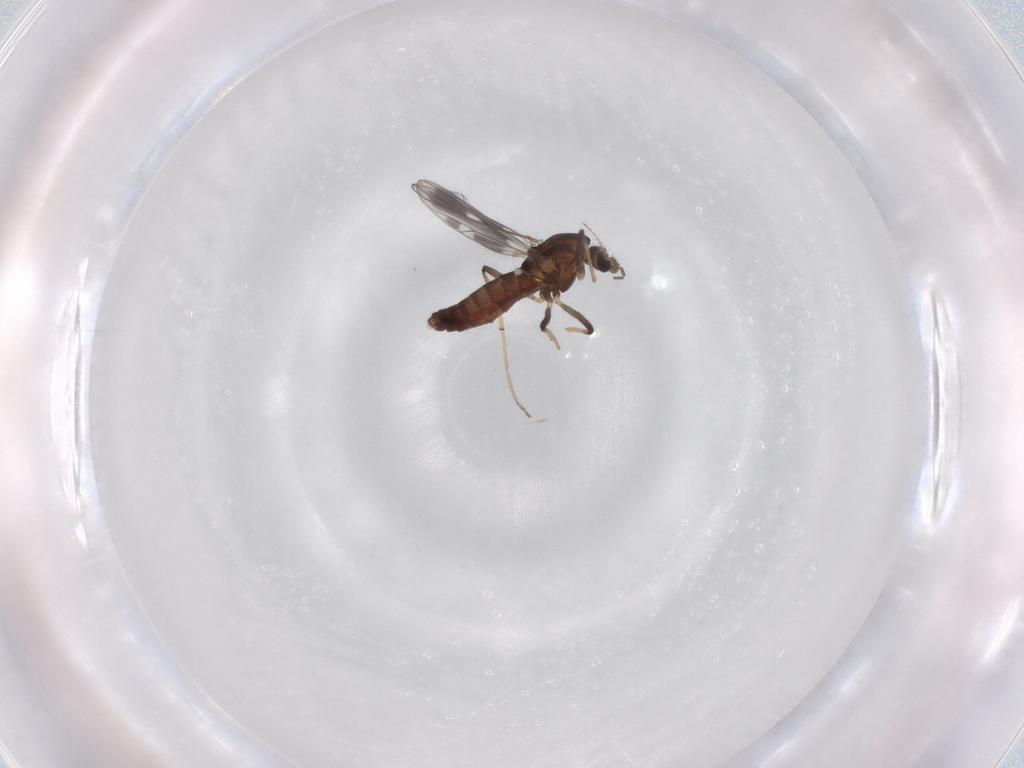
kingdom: Animalia
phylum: Arthropoda
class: Insecta
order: Diptera
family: Chironomidae
